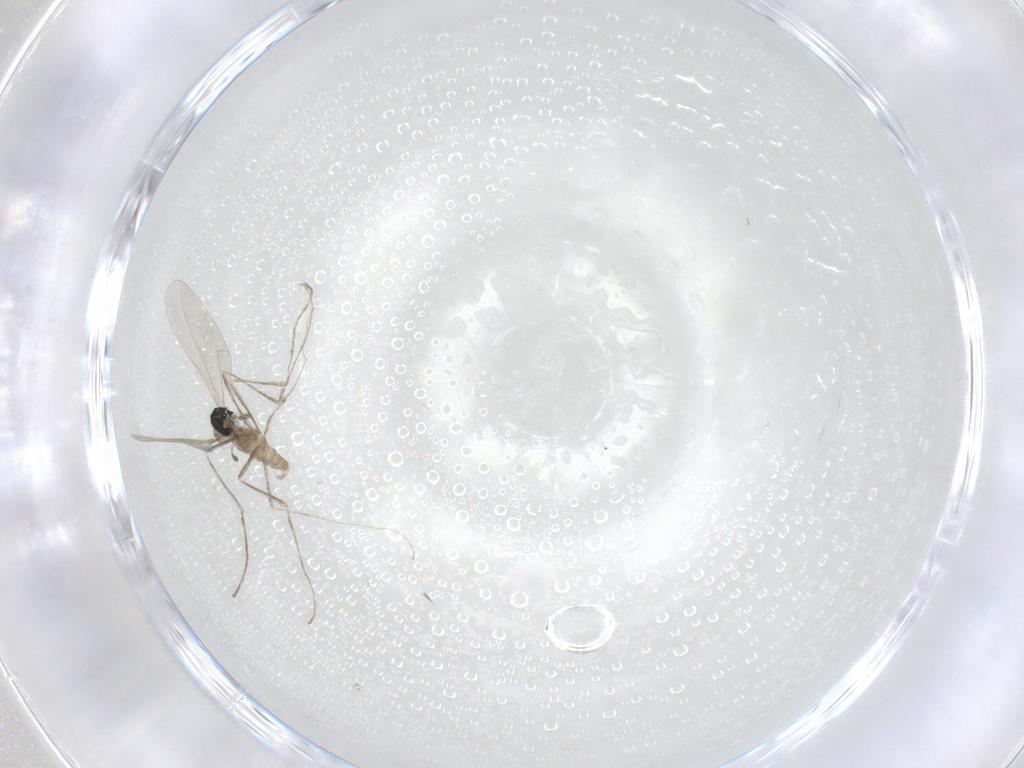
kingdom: Animalia
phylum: Arthropoda
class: Insecta
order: Diptera
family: Cecidomyiidae
